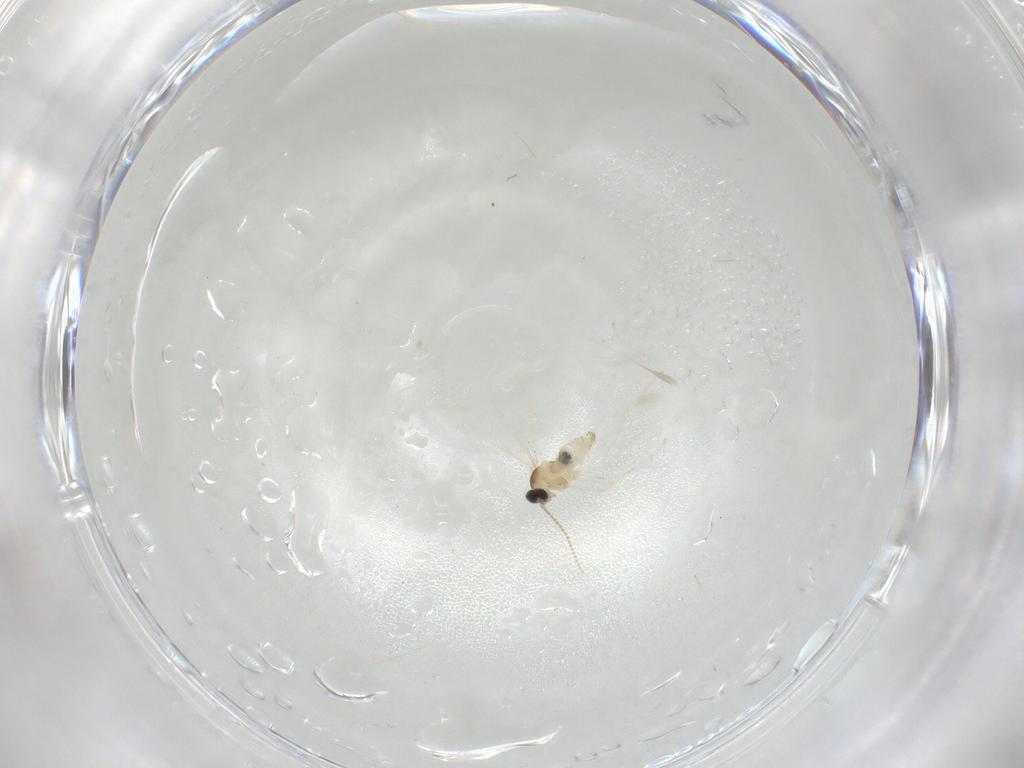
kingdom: Animalia
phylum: Arthropoda
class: Insecta
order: Diptera
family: Cecidomyiidae
